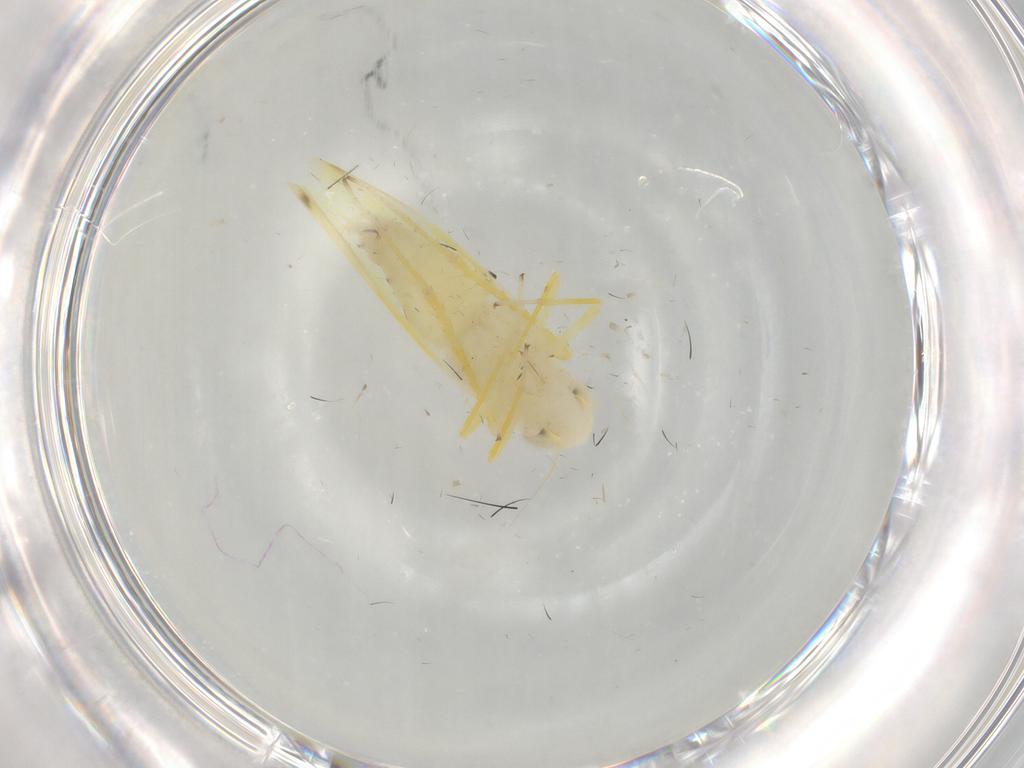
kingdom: Animalia
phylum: Arthropoda
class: Insecta
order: Hemiptera
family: Cicadellidae
